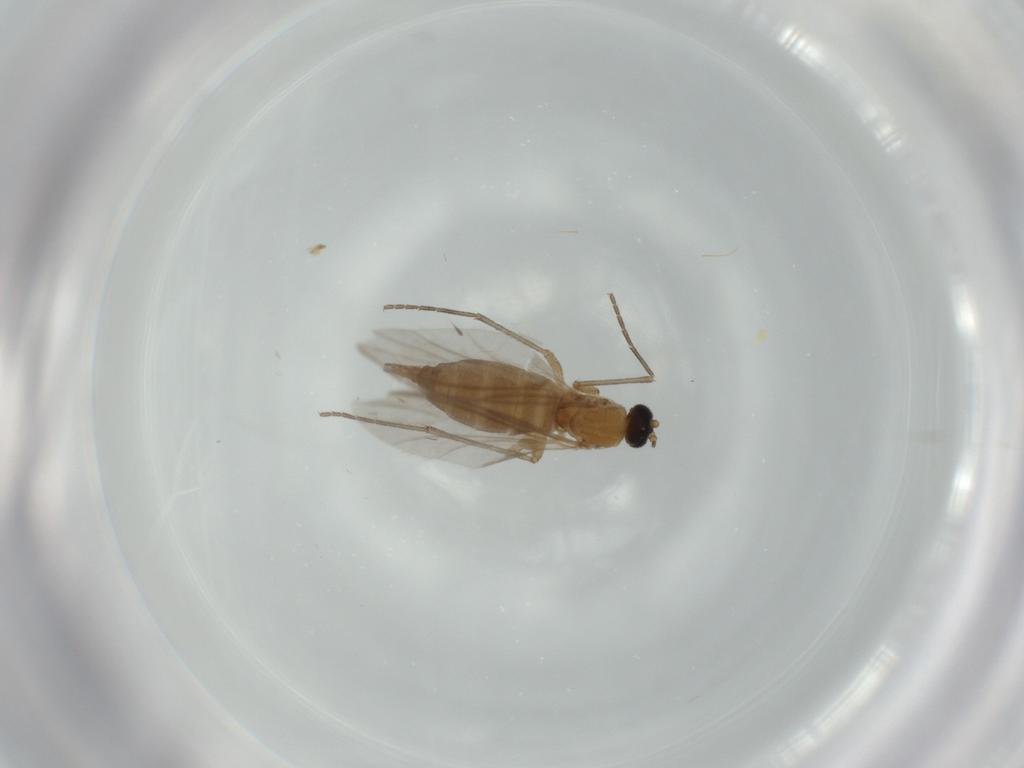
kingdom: Animalia
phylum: Arthropoda
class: Insecta
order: Diptera
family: Sciaridae
